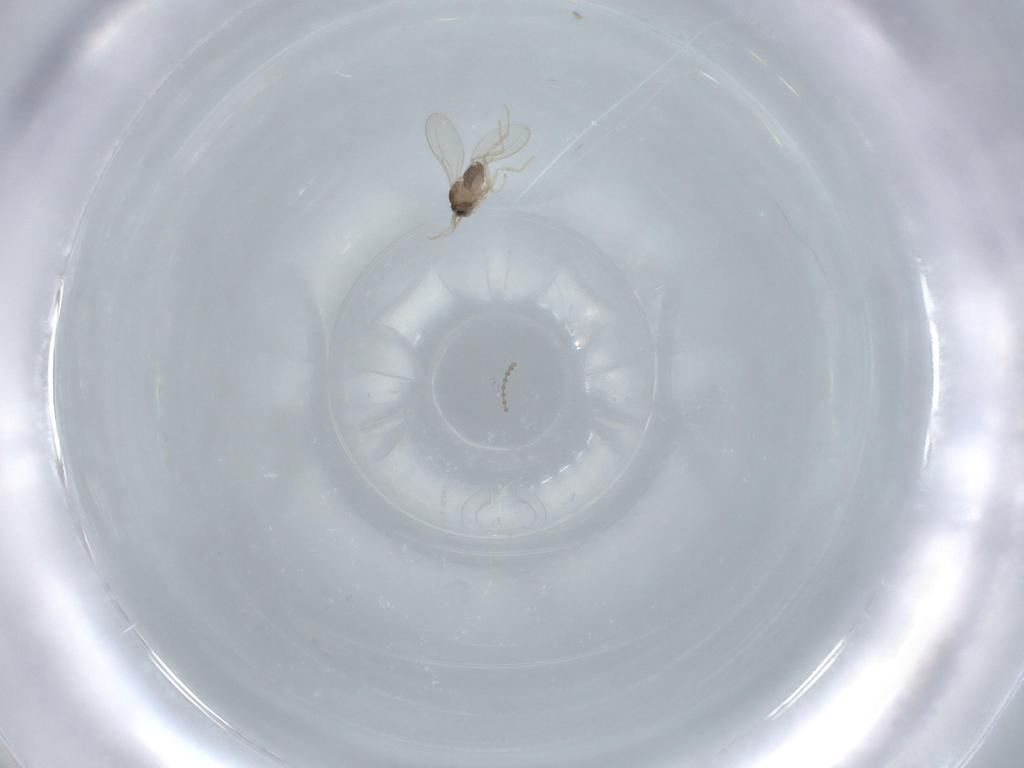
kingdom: Animalia
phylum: Arthropoda
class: Insecta
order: Diptera
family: Cecidomyiidae
